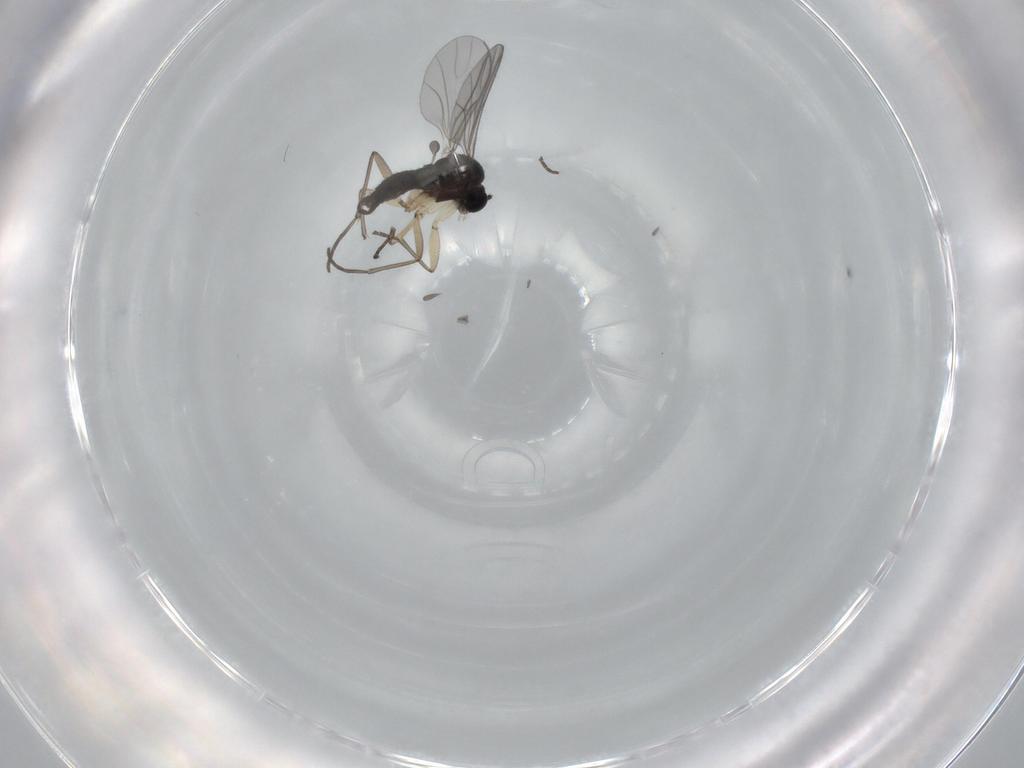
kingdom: Animalia
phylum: Arthropoda
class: Insecta
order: Diptera
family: Sciaridae
